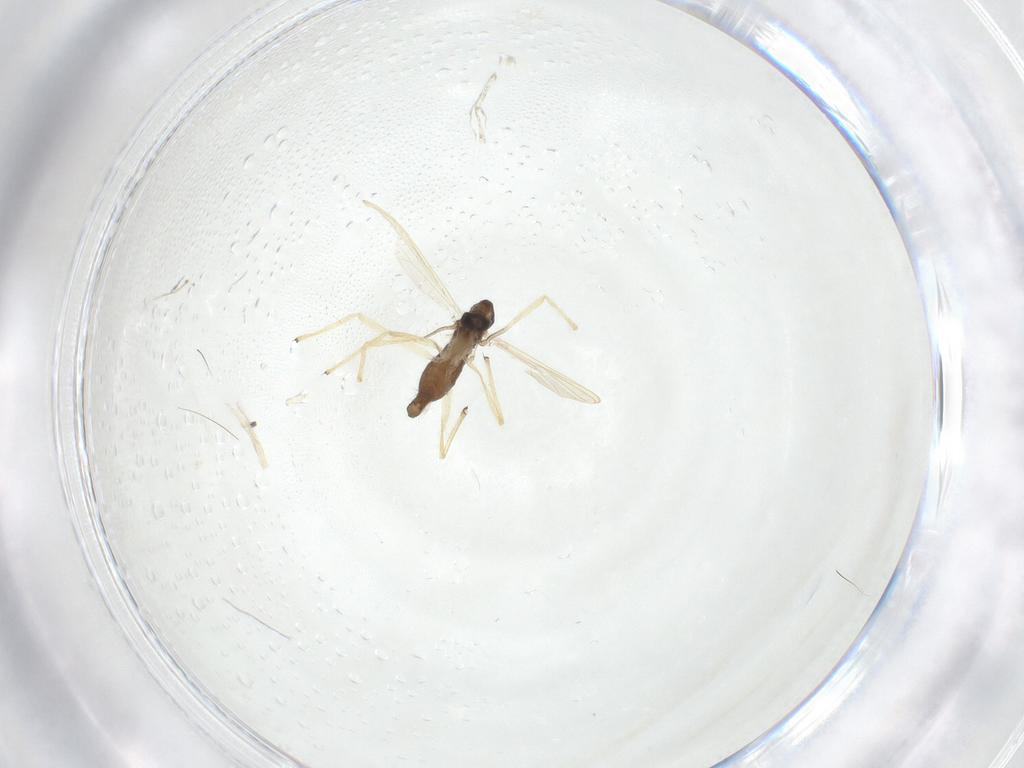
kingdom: Animalia
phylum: Arthropoda
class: Insecta
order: Diptera
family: Chironomidae
